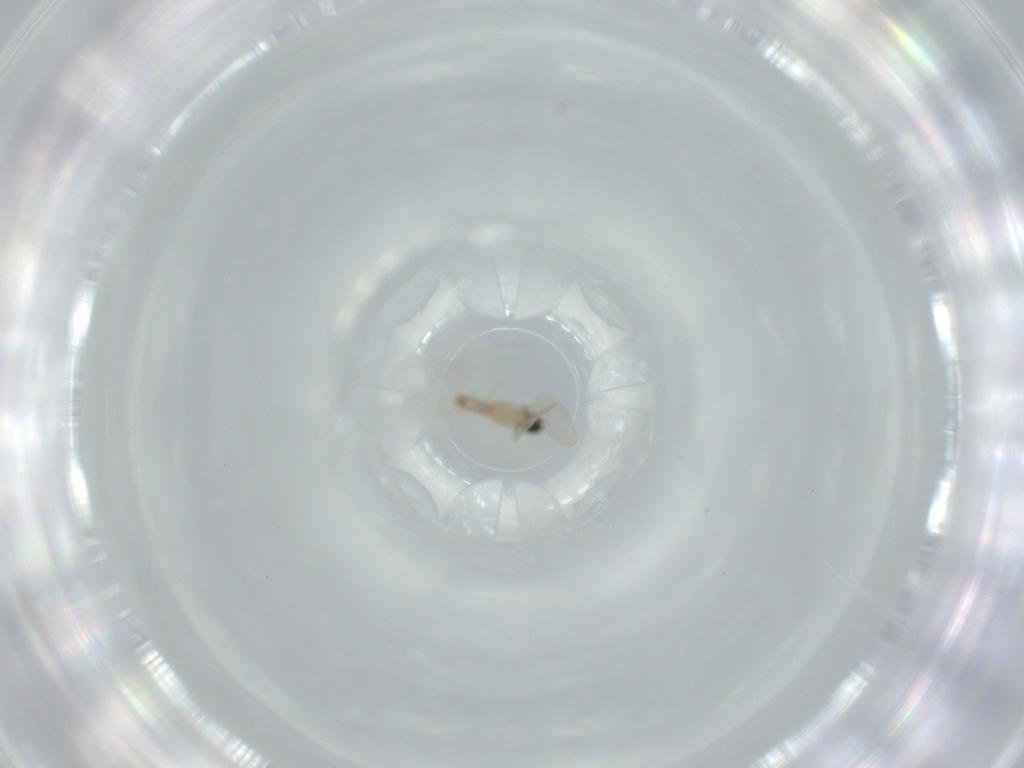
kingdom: Animalia
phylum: Arthropoda
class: Insecta
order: Diptera
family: Cecidomyiidae
